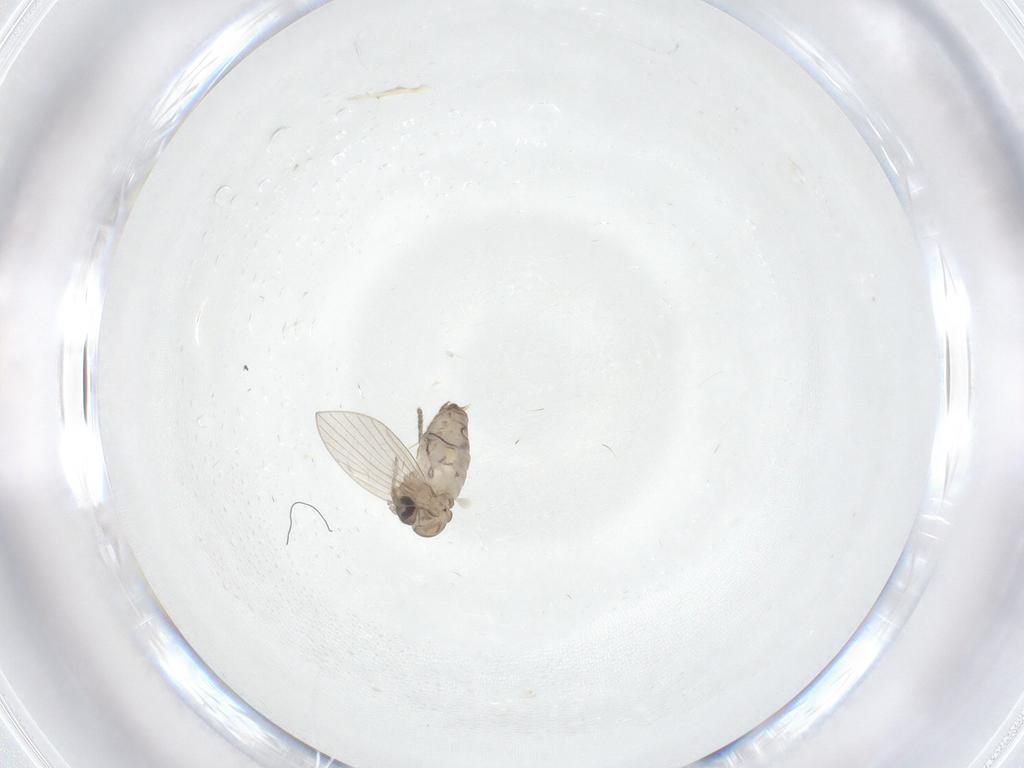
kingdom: Animalia
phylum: Arthropoda
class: Insecta
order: Diptera
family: Psychodidae
